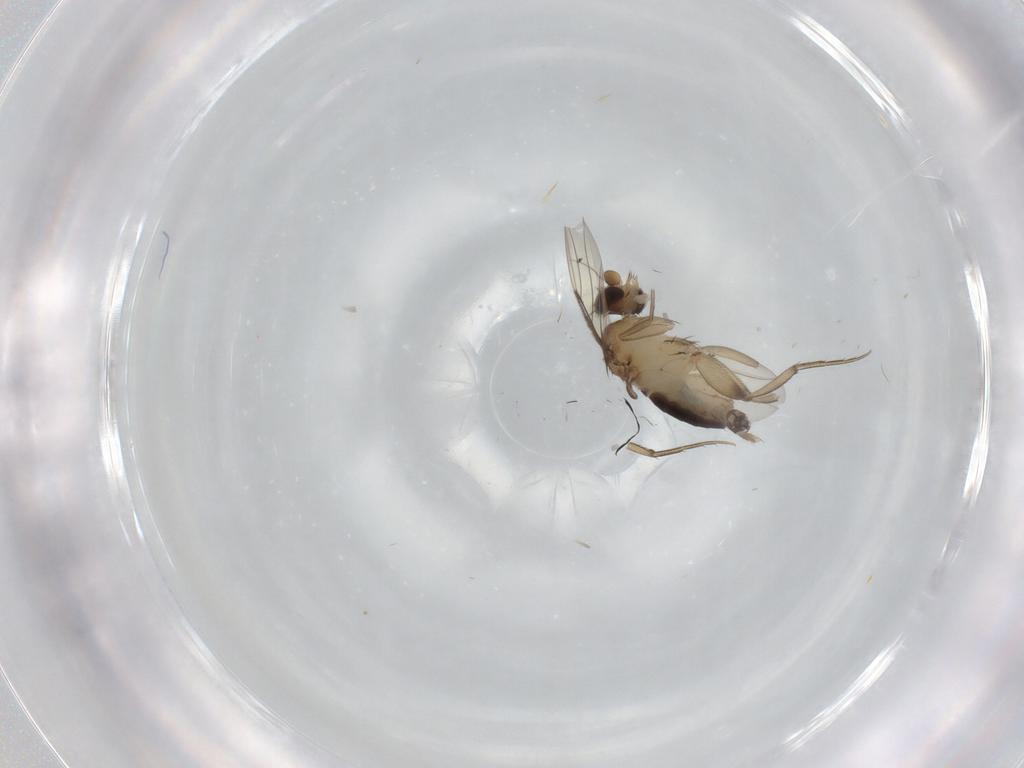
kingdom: Animalia
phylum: Arthropoda
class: Insecta
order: Diptera
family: Phoridae
